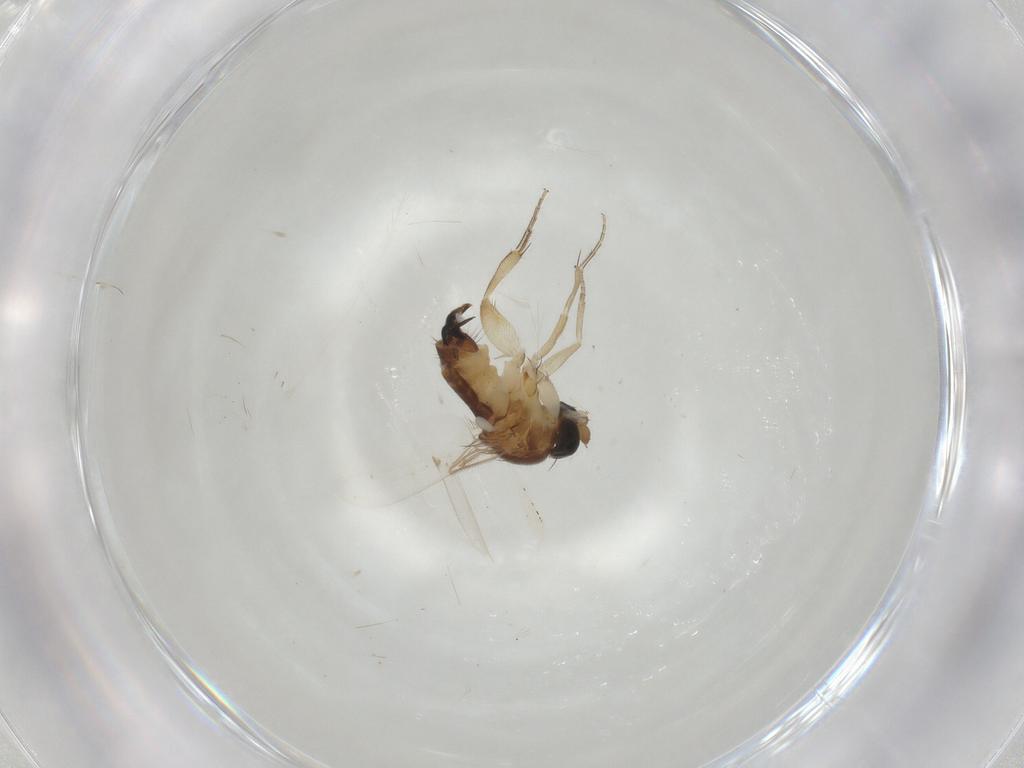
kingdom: Animalia
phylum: Arthropoda
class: Insecta
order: Diptera
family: Phoridae
